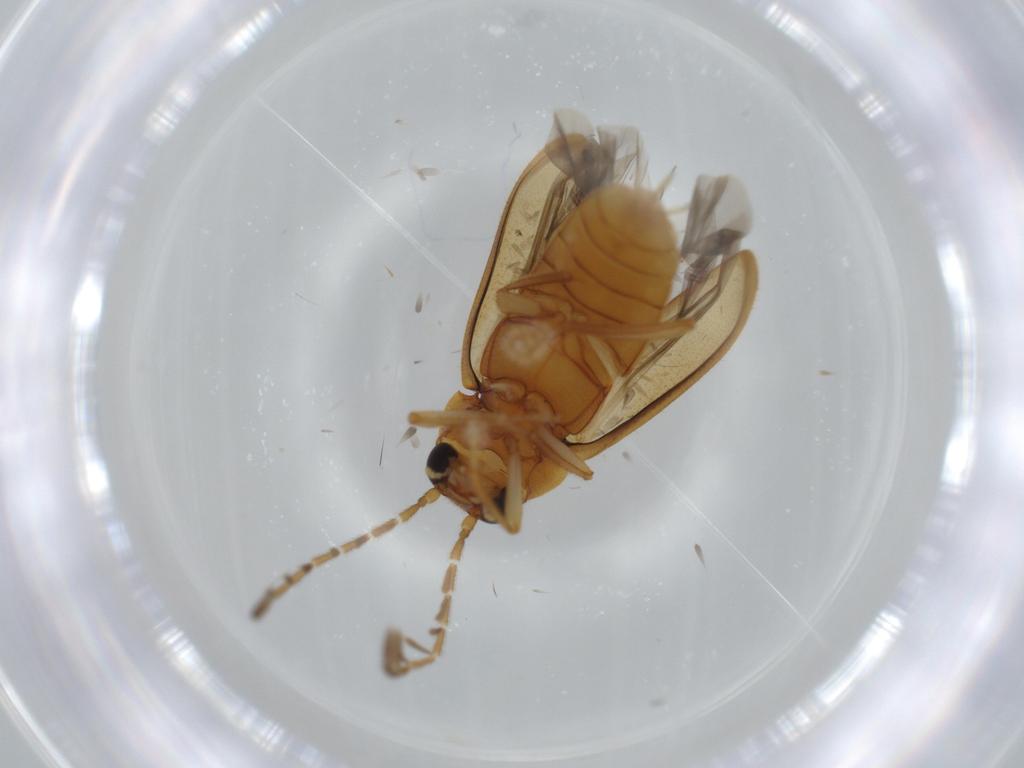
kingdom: Animalia
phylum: Arthropoda
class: Insecta
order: Coleoptera
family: Ptilodactylidae
